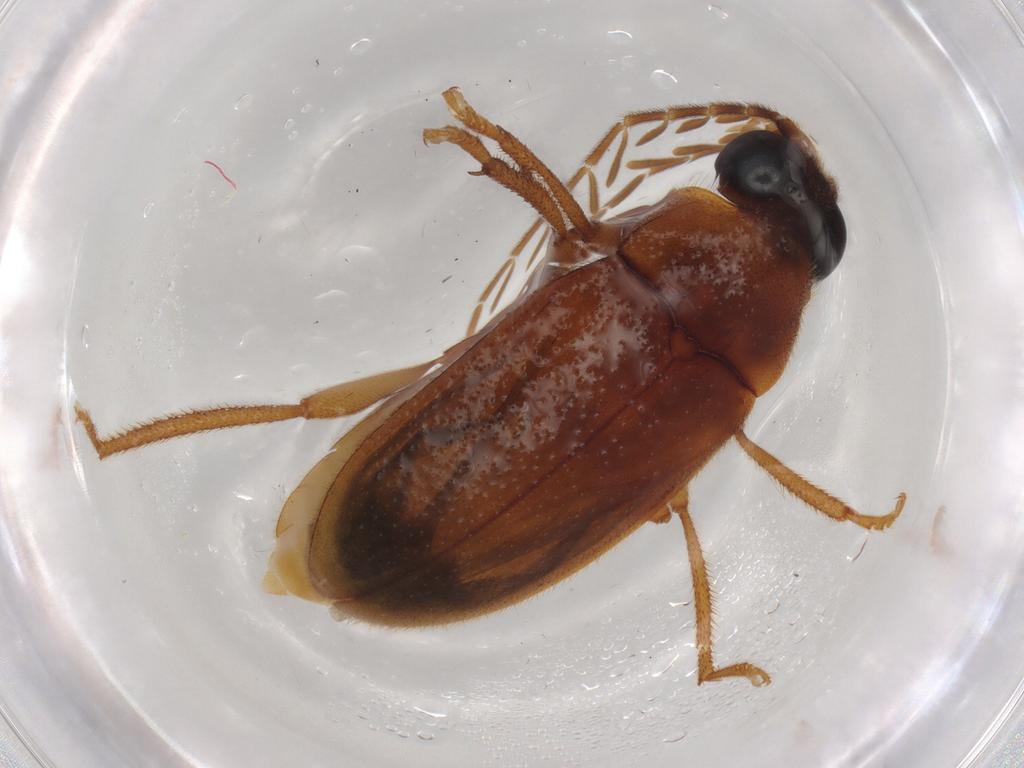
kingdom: Animalia
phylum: Arthropoda
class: Insecta
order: Coleoptera
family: Ptilodactylidae
